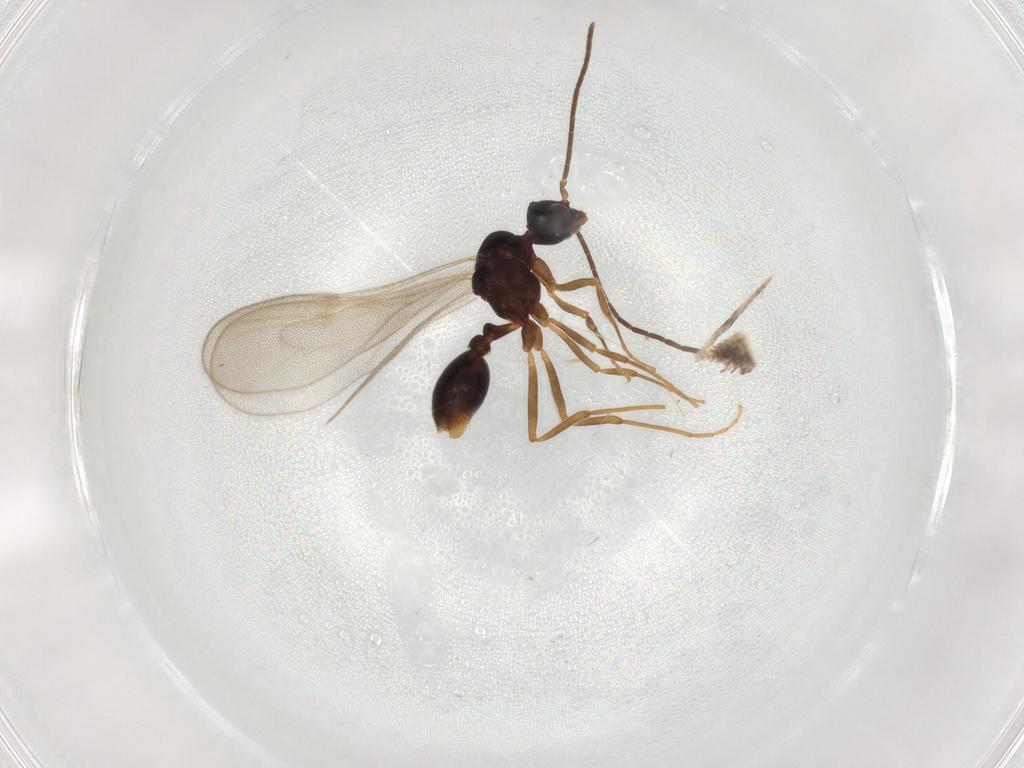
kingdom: Animalia
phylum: Arthropoda
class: Insecta
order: Hymenoptera
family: Formicidae
